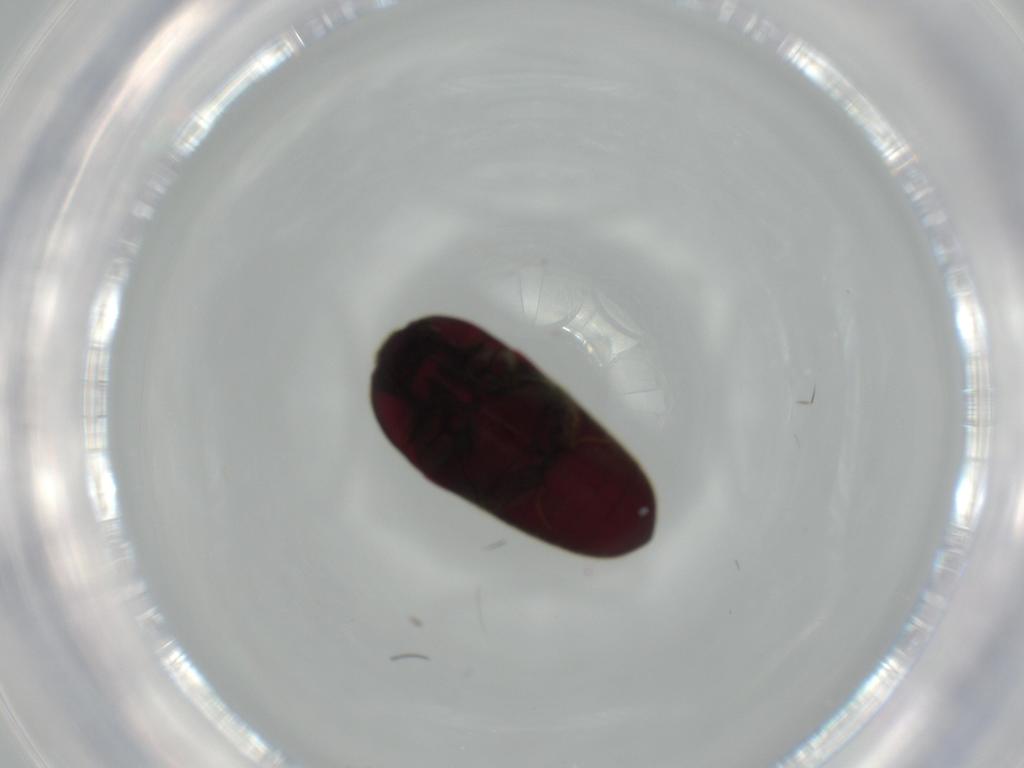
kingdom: Animalia
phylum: Arthropoda
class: Insecta
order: Coleoptera
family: Throscidae
